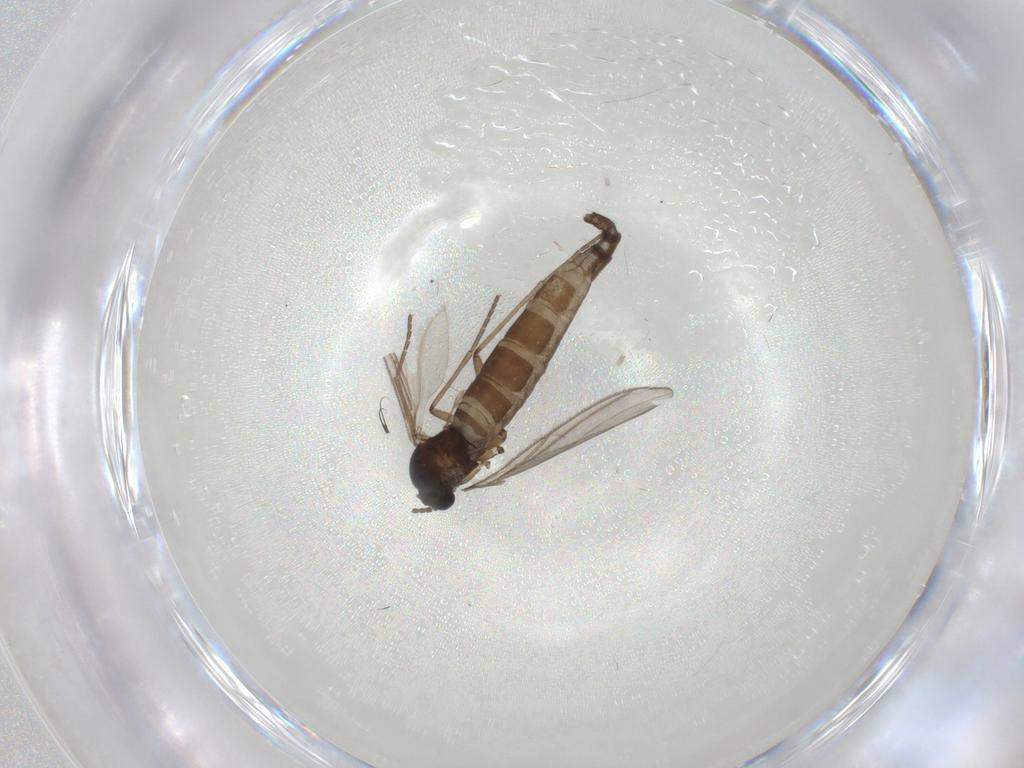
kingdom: Animalia
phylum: Arthropoda
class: Insecta
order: Diptera
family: Sciaridae
